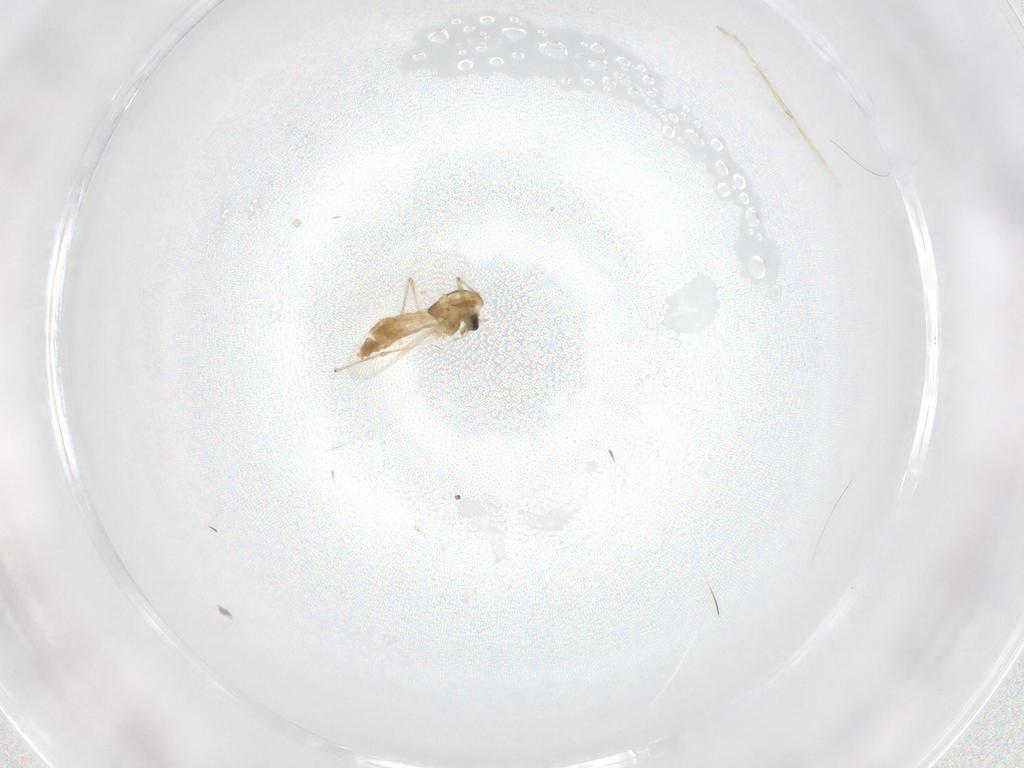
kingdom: Animalia
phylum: Arthropoda
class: Insecta
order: Diptera
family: Chironomidae
